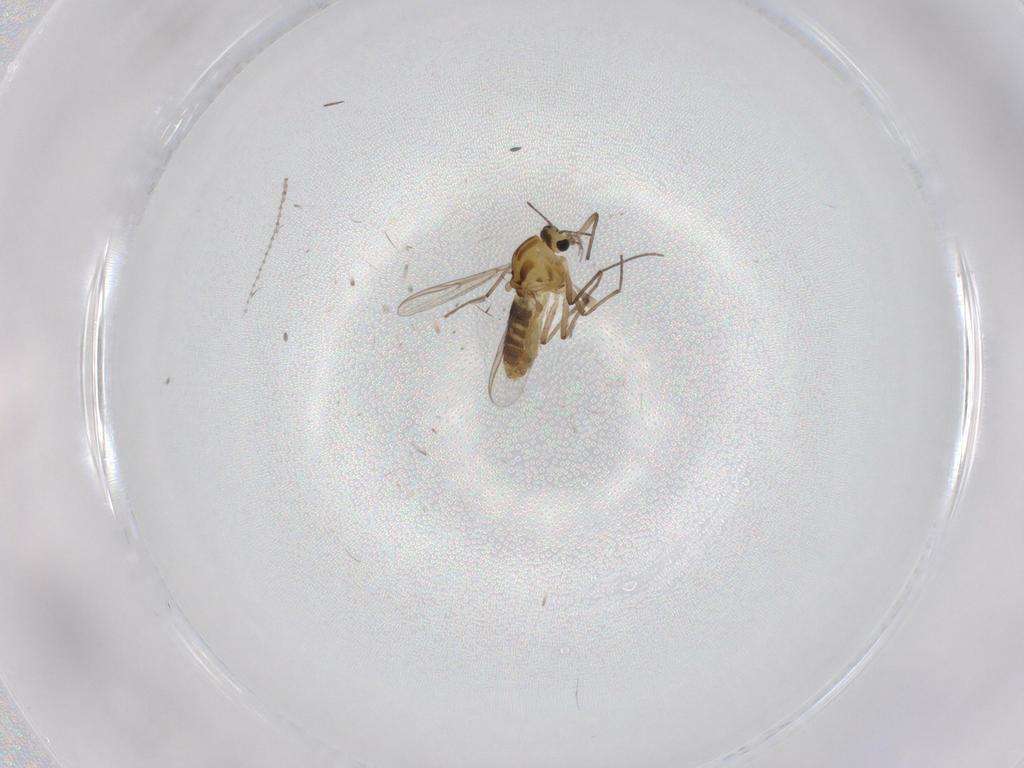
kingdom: Animalia
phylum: Arthropoda
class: Insecta
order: Diptera
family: Chironomidae
